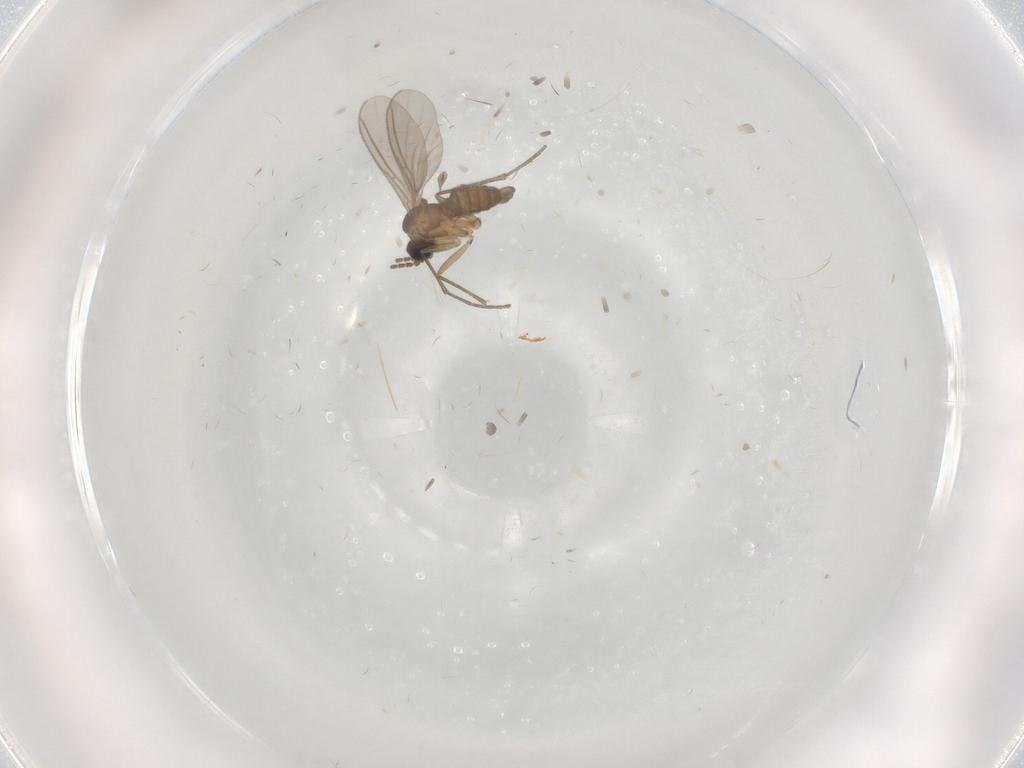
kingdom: Animalia
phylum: Arthropoda
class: Insecta
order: Diptera
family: Sciaridae
